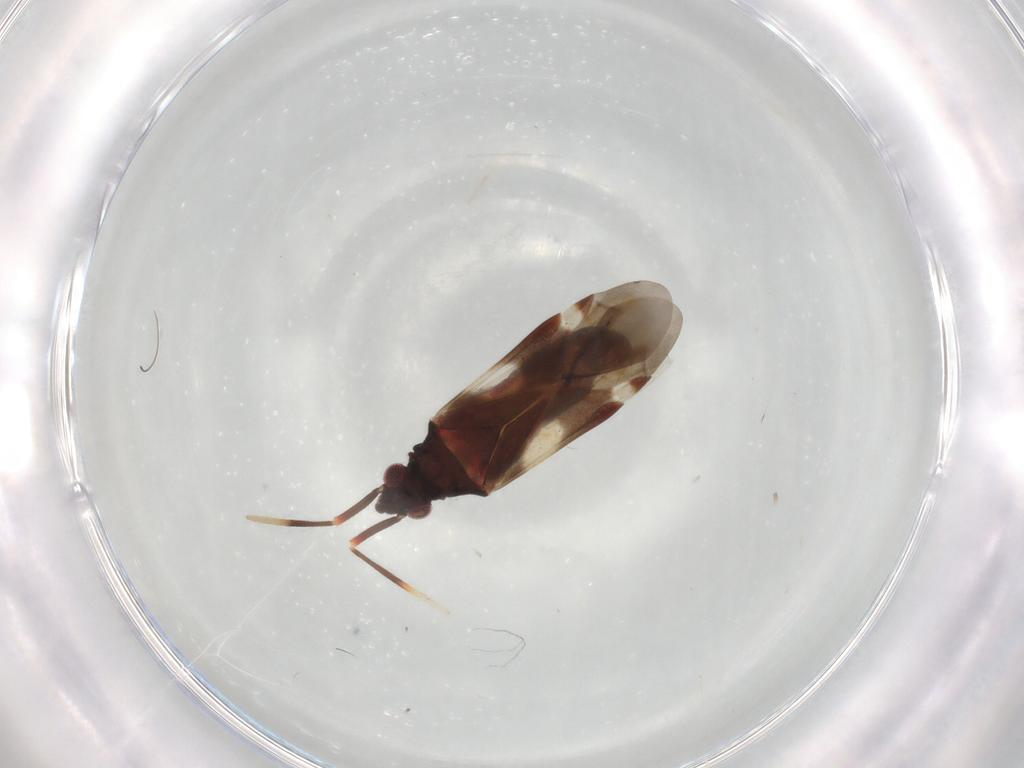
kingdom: Animalia
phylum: Arthropoda
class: Insecta
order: Hemiptera
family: Miridae
